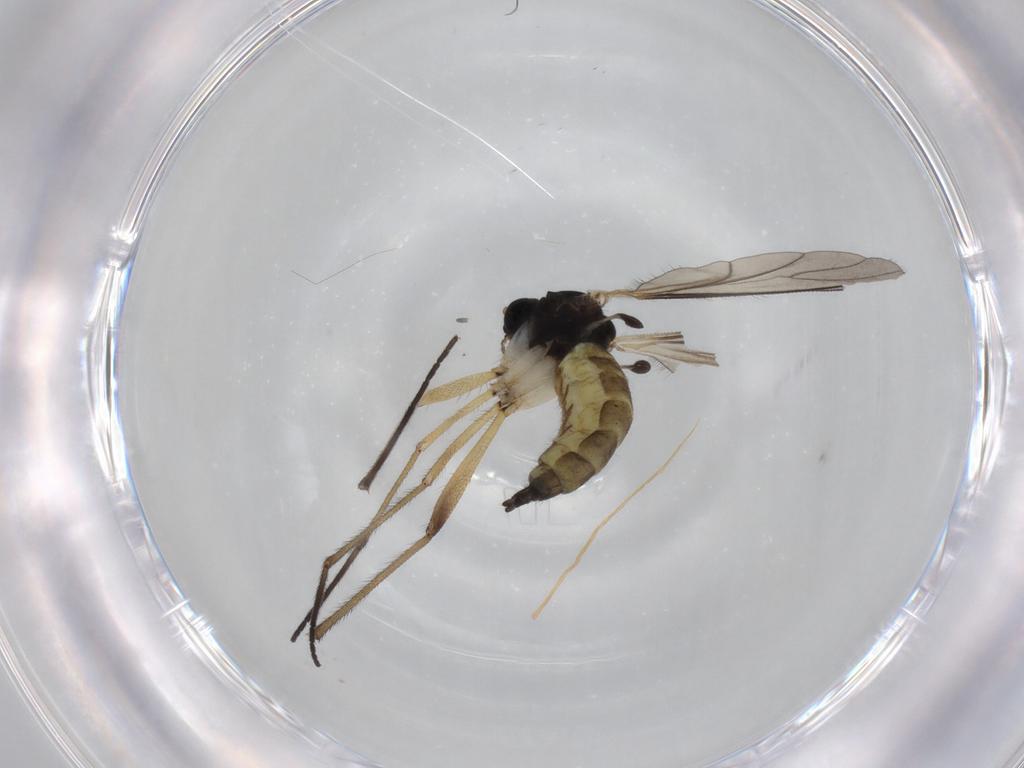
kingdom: Animalia
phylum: Arthropoda
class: Insecta
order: Diptera
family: Sciaridae
